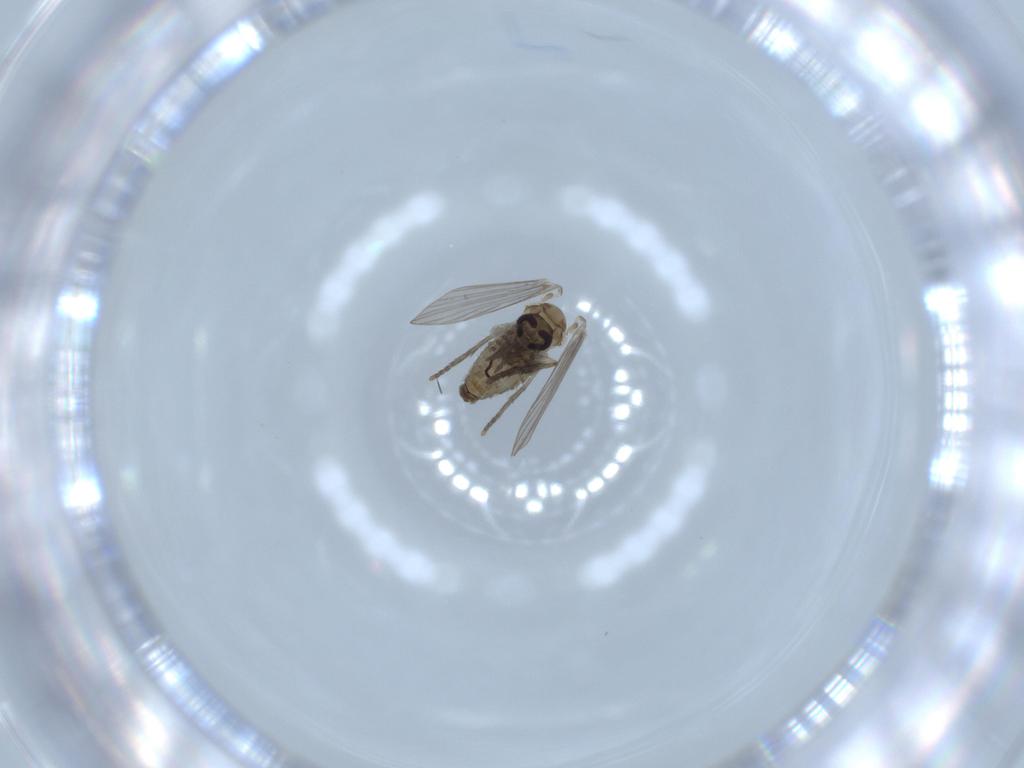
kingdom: Animalia
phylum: Arthropoda
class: Insecta
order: Diptera
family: Psychodidae
